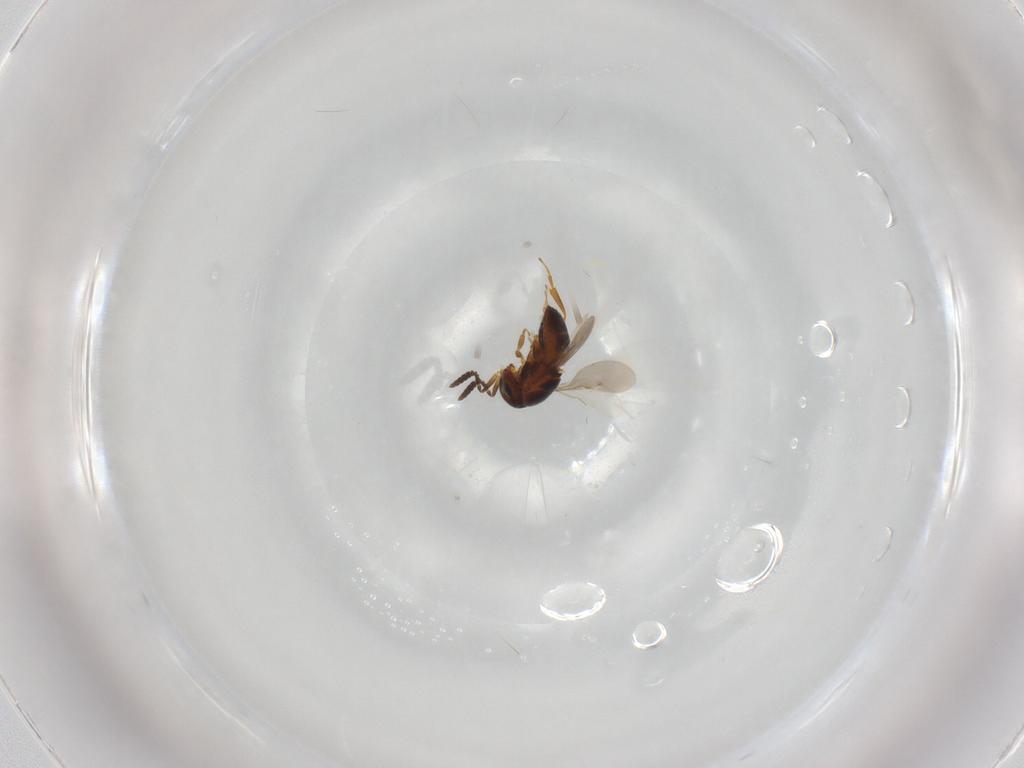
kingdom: Animalia
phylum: Arthropoda
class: Insecta
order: Hymenoptera
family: Scelionidae
